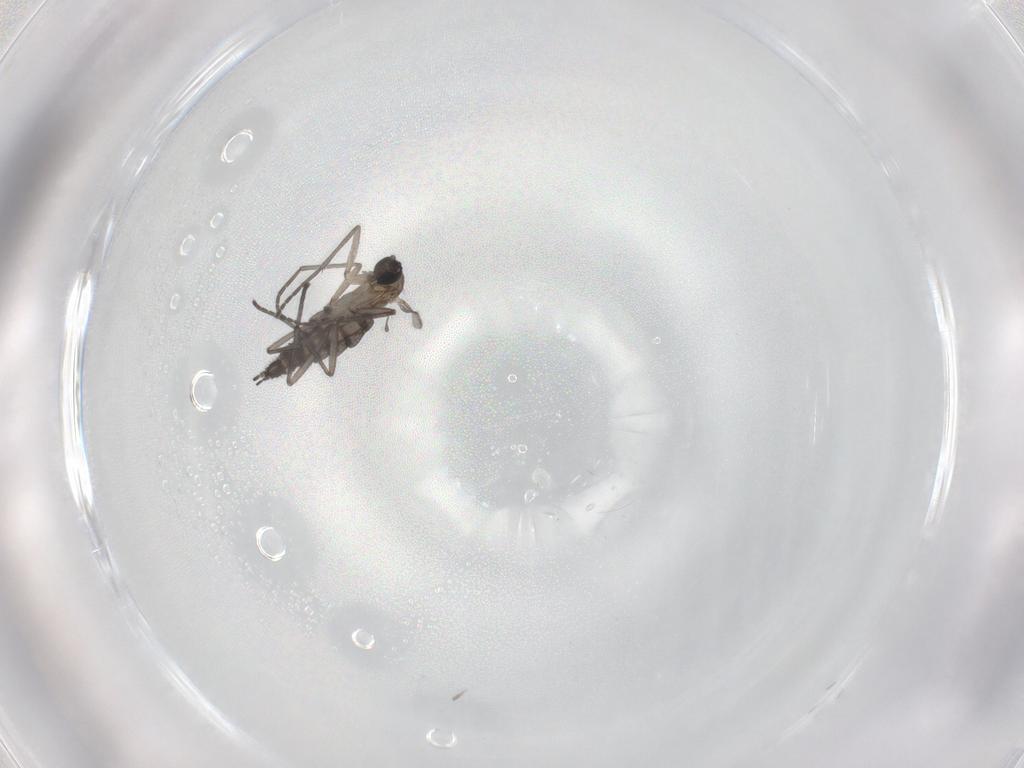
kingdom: Animalia
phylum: Arthropoda
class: Insecta
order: Diptera
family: Sciaridae
